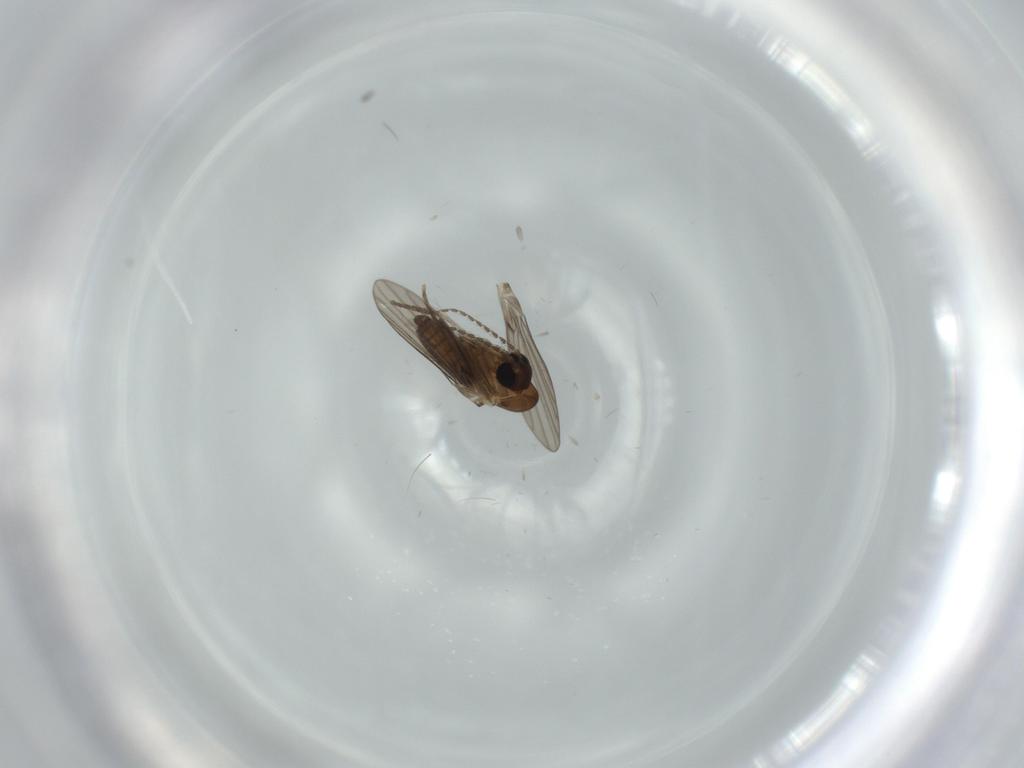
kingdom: Animalia
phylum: Arthropoda
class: Insecta
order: Diptera
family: Psychodidae
